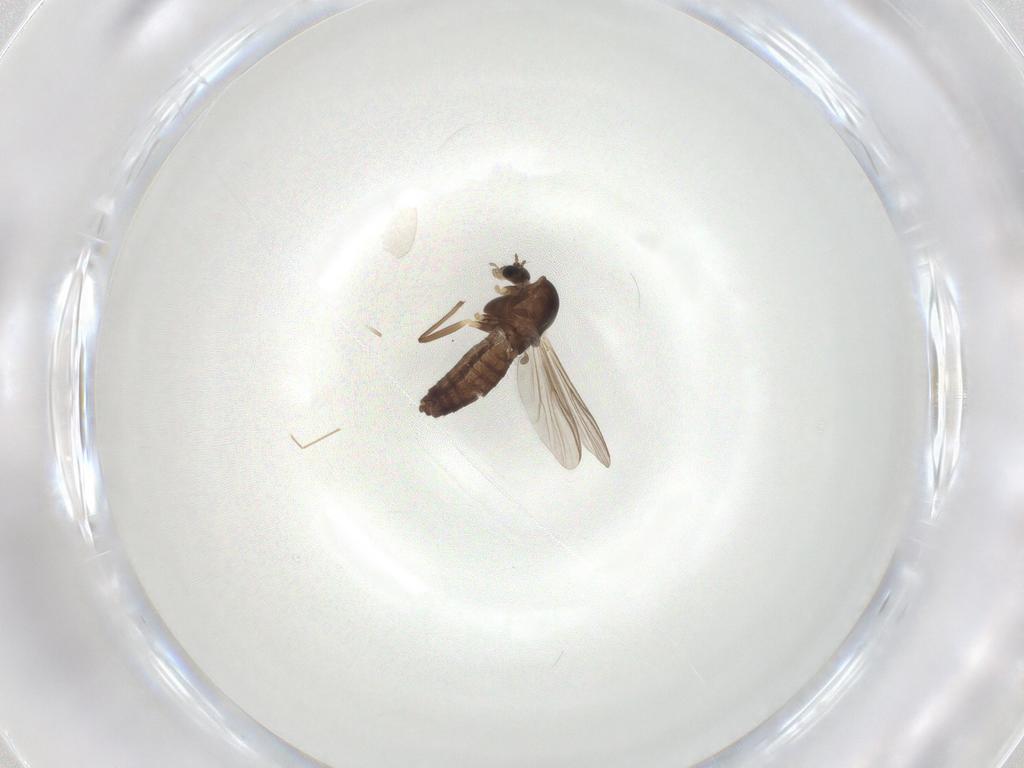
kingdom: Animalia
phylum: Arthropoda
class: Insecta
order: Diptera
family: Chironomidae
